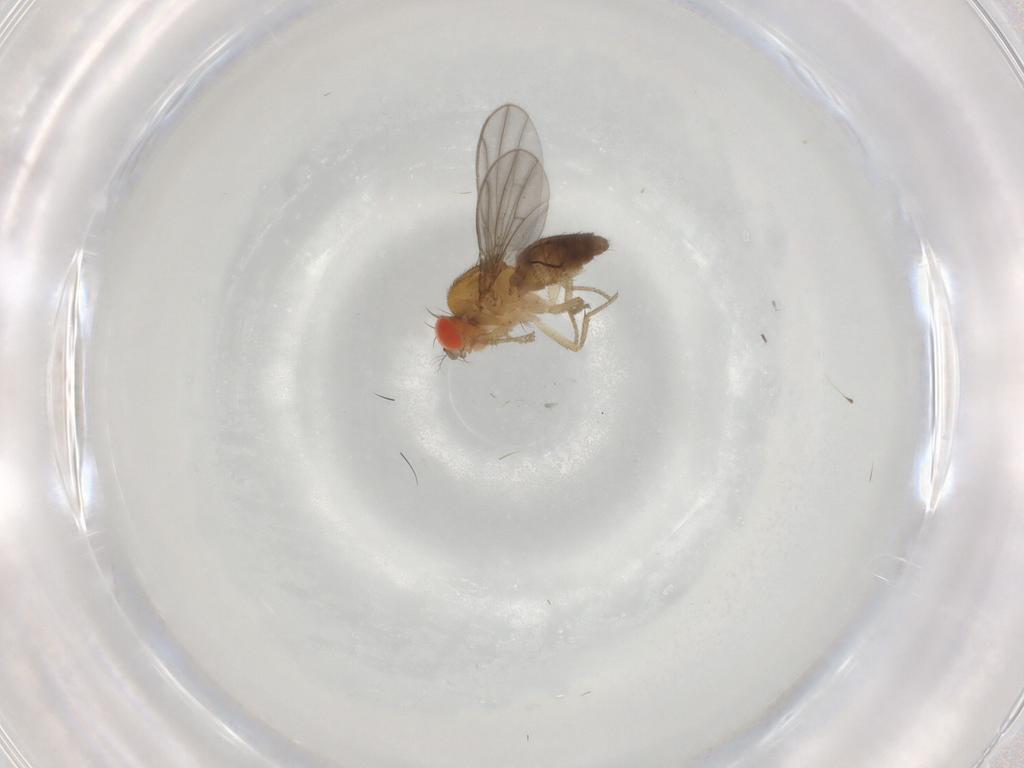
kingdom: Animalia
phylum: Arthropoda
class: Insecta
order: Diptera
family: Drosophilidae
